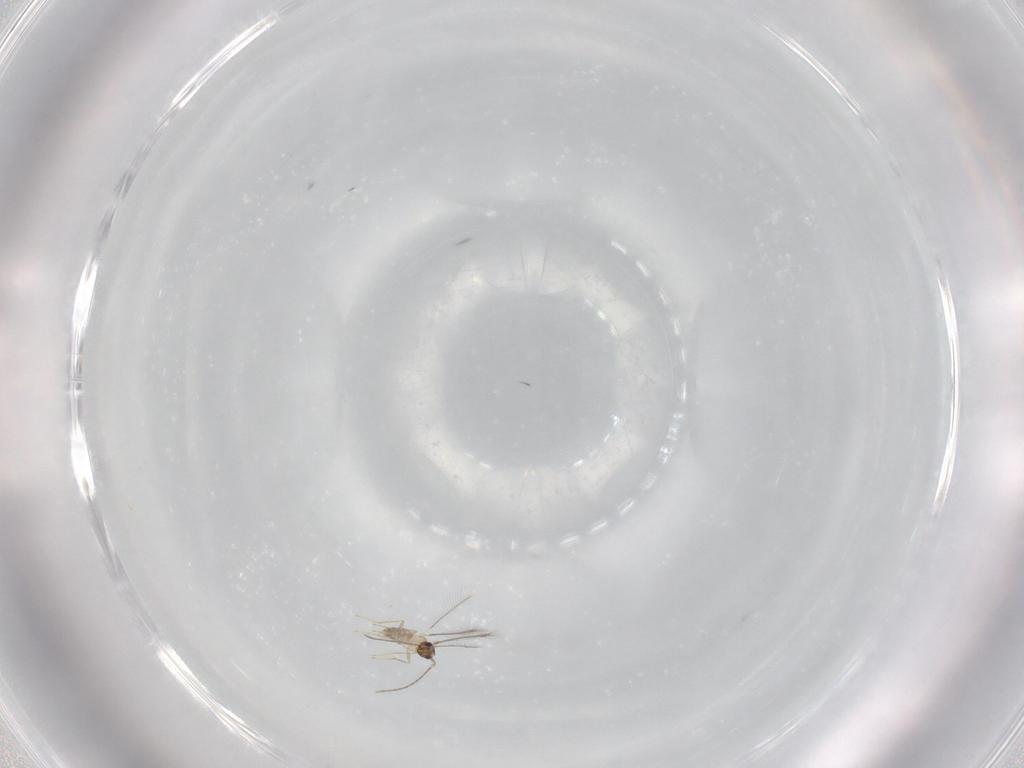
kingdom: Animalia
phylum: Arthropoda
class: Insecta
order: Hymenoptera
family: Mymaridae
